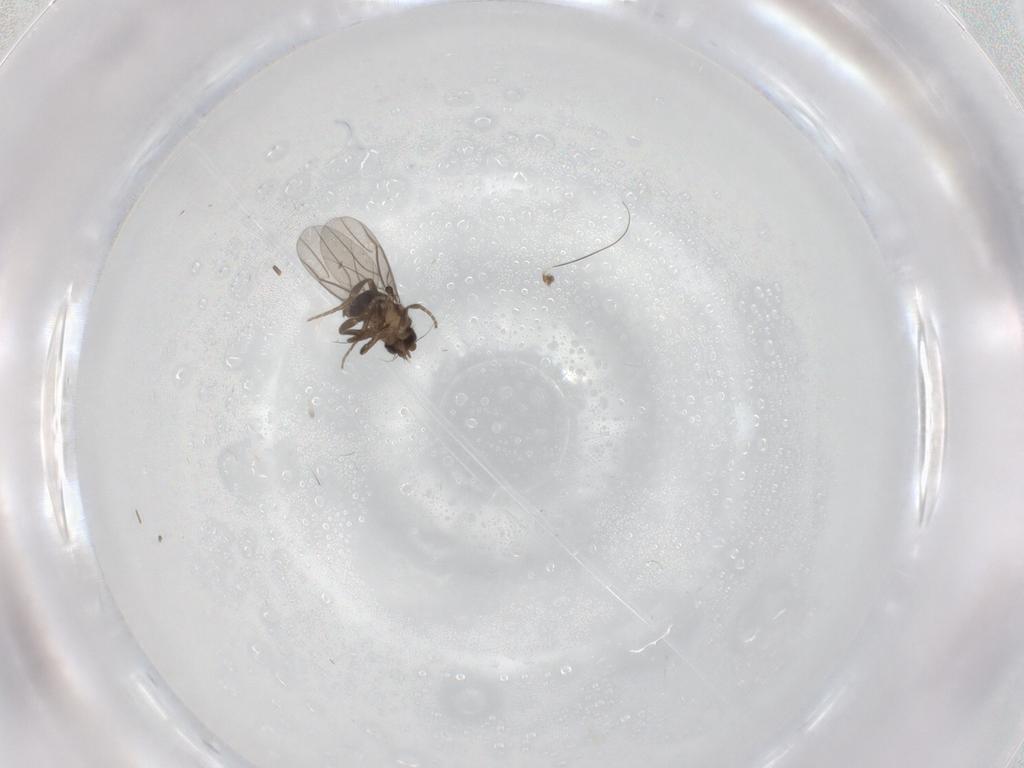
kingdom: Animalia
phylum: Arthropoda
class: Insecta
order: Diptera
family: Phoridae
